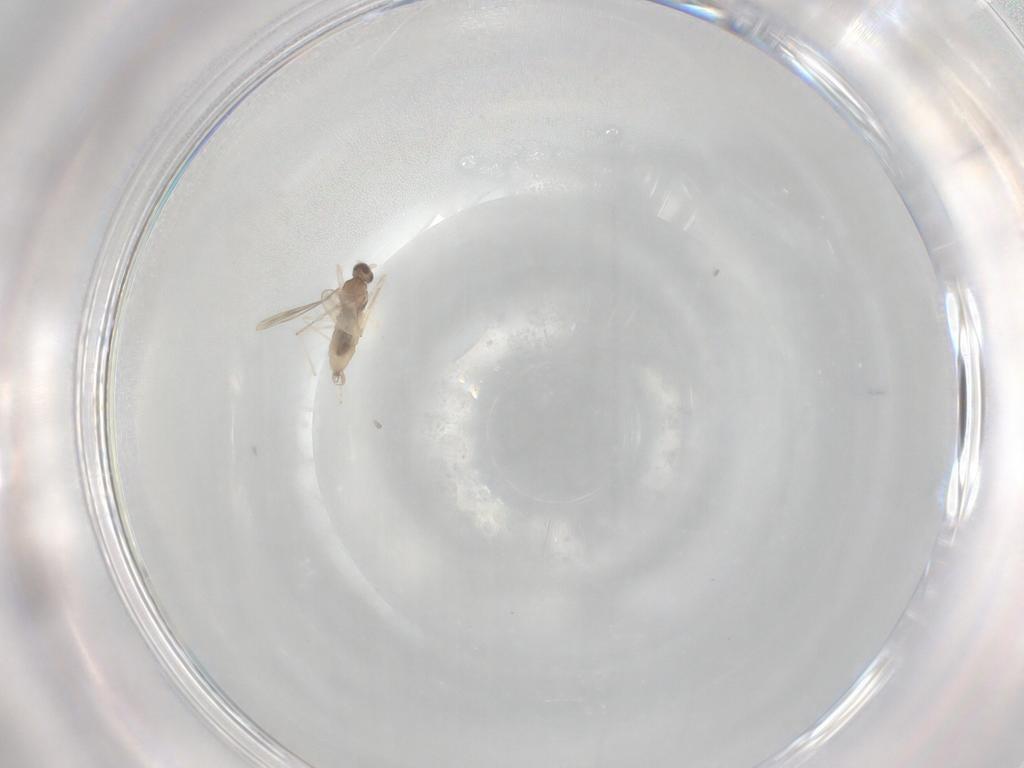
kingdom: Animalia
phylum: Arthropoda
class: Insecta
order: Diptera
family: Cecidomyiidae
